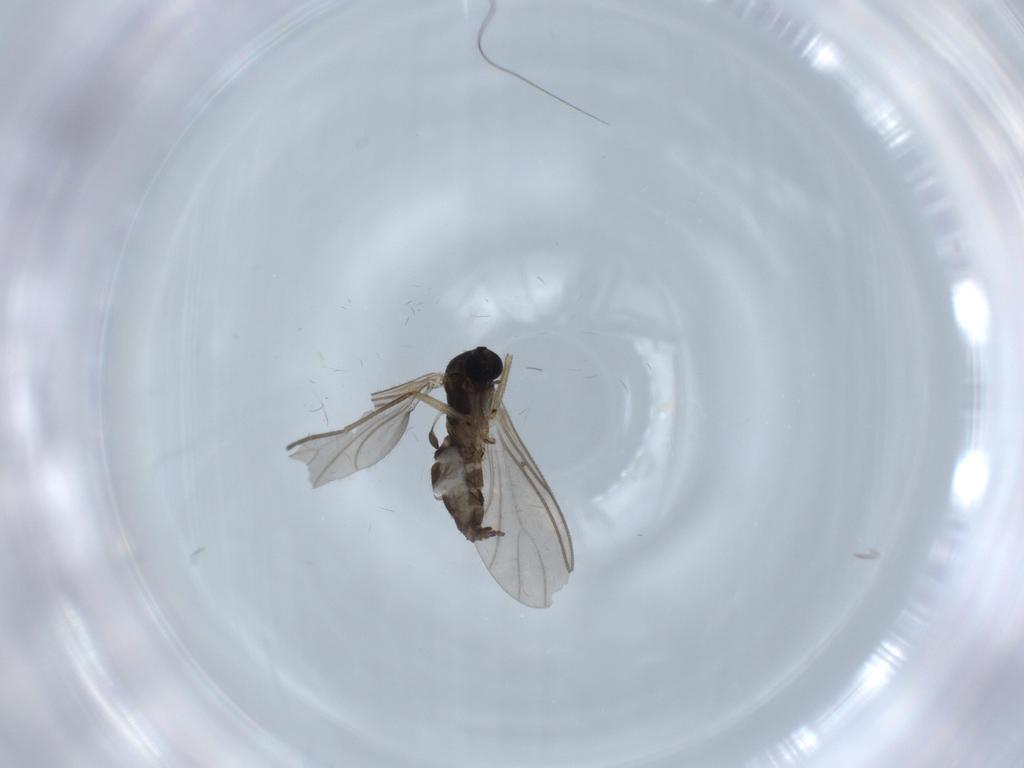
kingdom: Animalia
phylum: Arthropoda
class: Insecta
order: Diptera
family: Sciaridae
